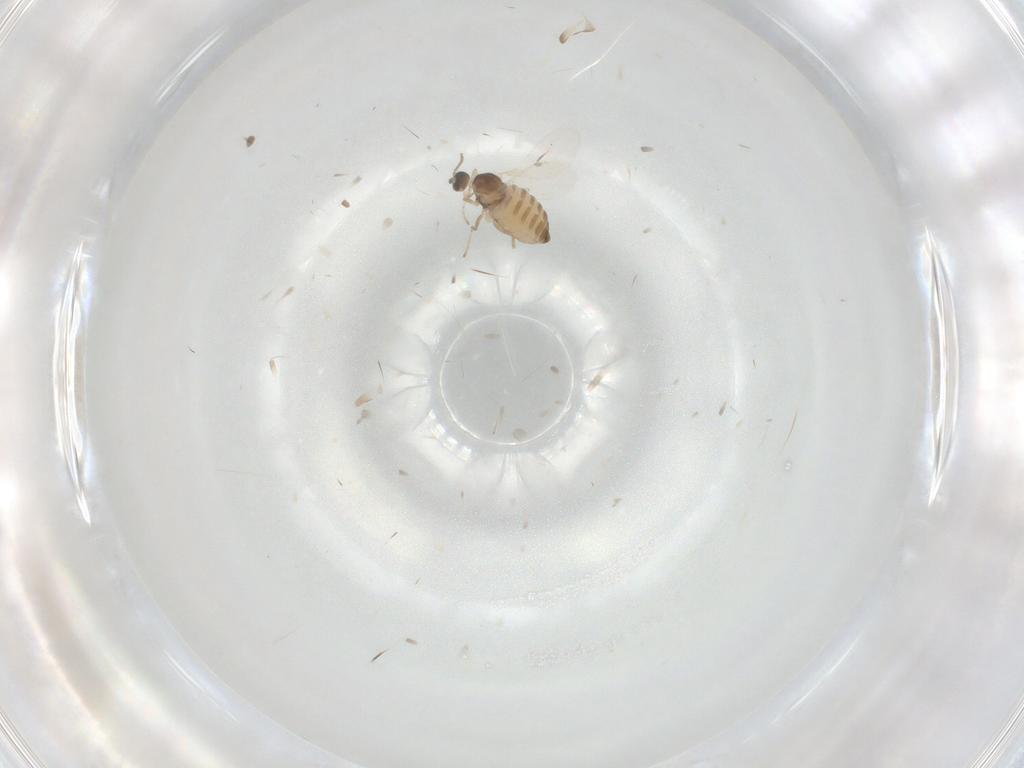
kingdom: Animalia
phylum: Arthropoda
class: Insecta
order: Diptera
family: Cecidomyiidae
